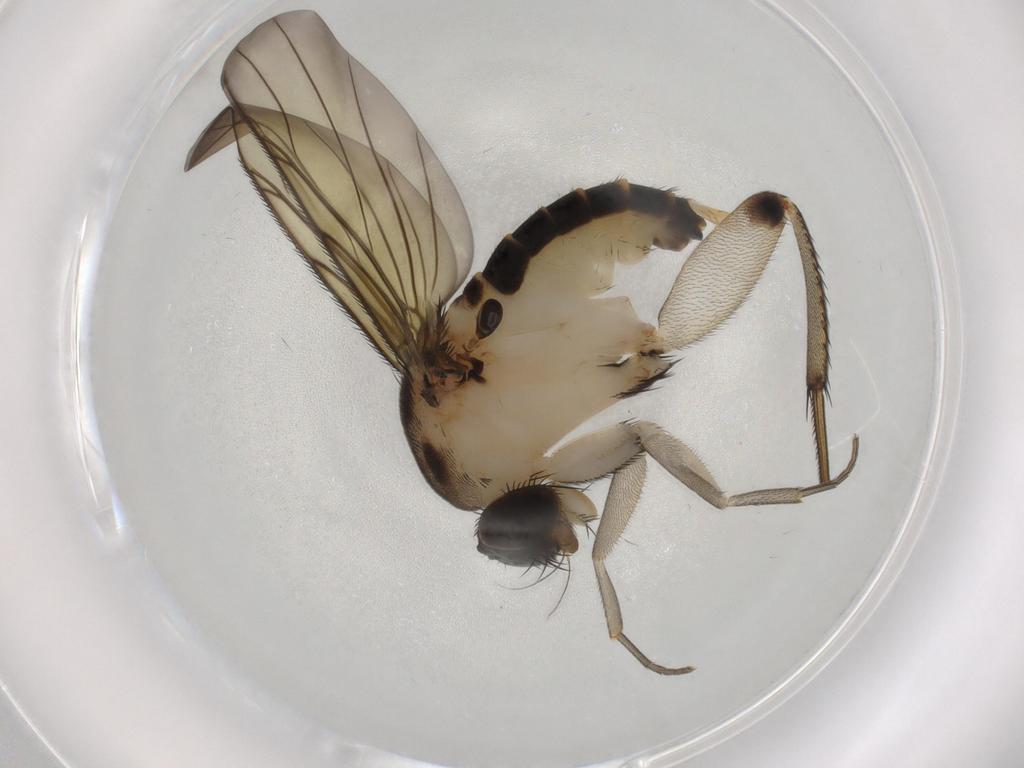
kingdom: Animalia
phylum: Arthropoda
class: Insecta
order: Diptera
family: Phoridae
